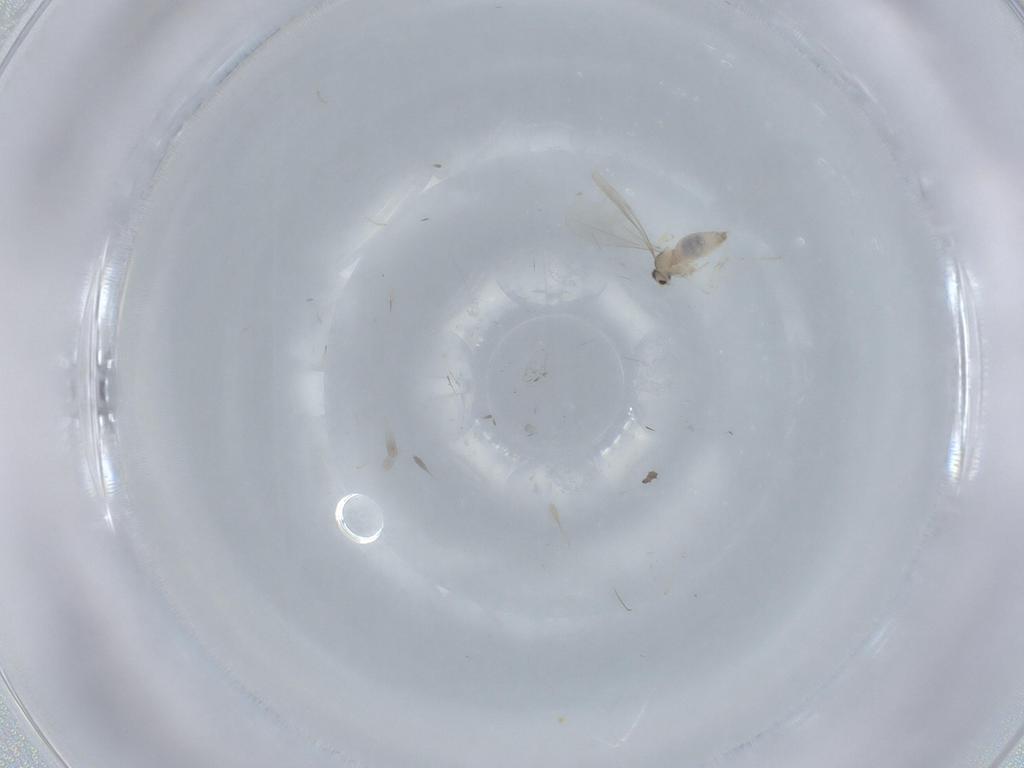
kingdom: Animalia
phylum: Arthropoda
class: Insecta
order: Diptera
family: Cecidomyiidae
